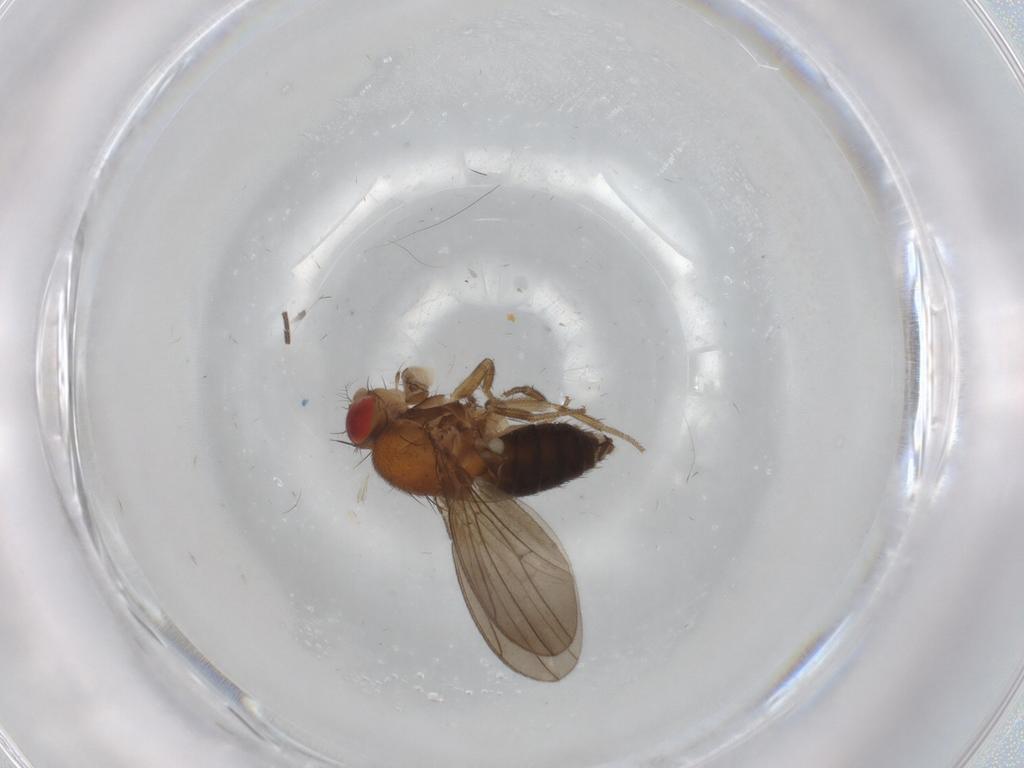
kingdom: Animalia
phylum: Arthropoda
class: Insecta
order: Diptera
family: Drosophilidae
